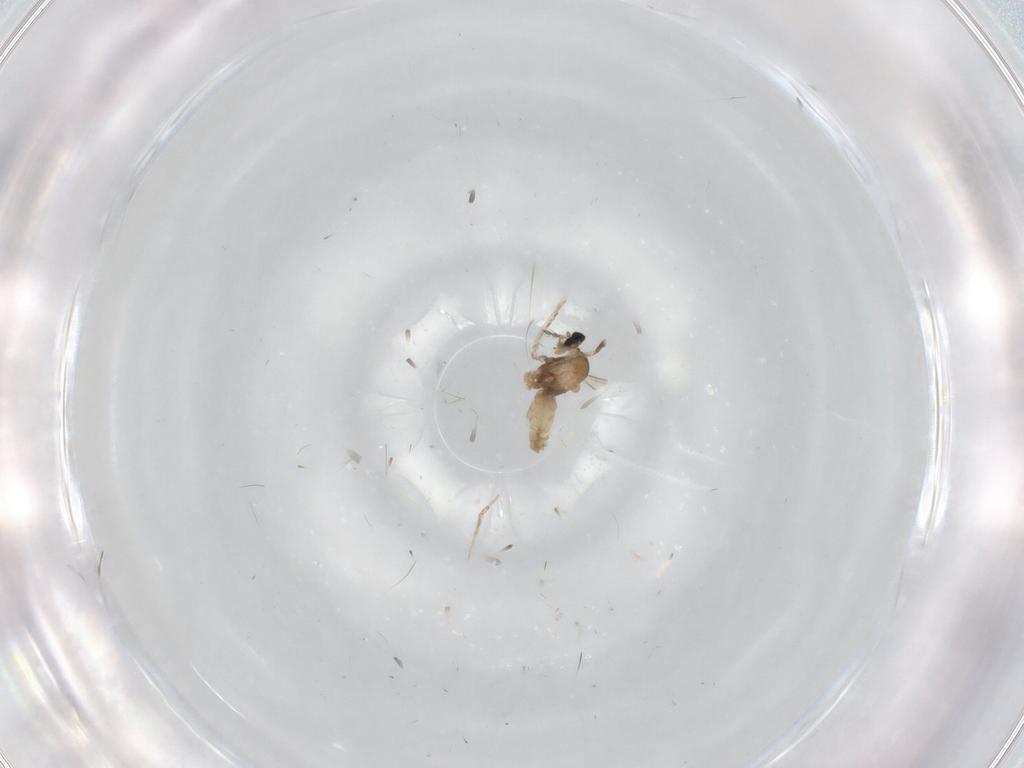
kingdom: Animalia
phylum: Arthropoda
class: Insecta
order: Diptera
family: Cecidomyiidae
